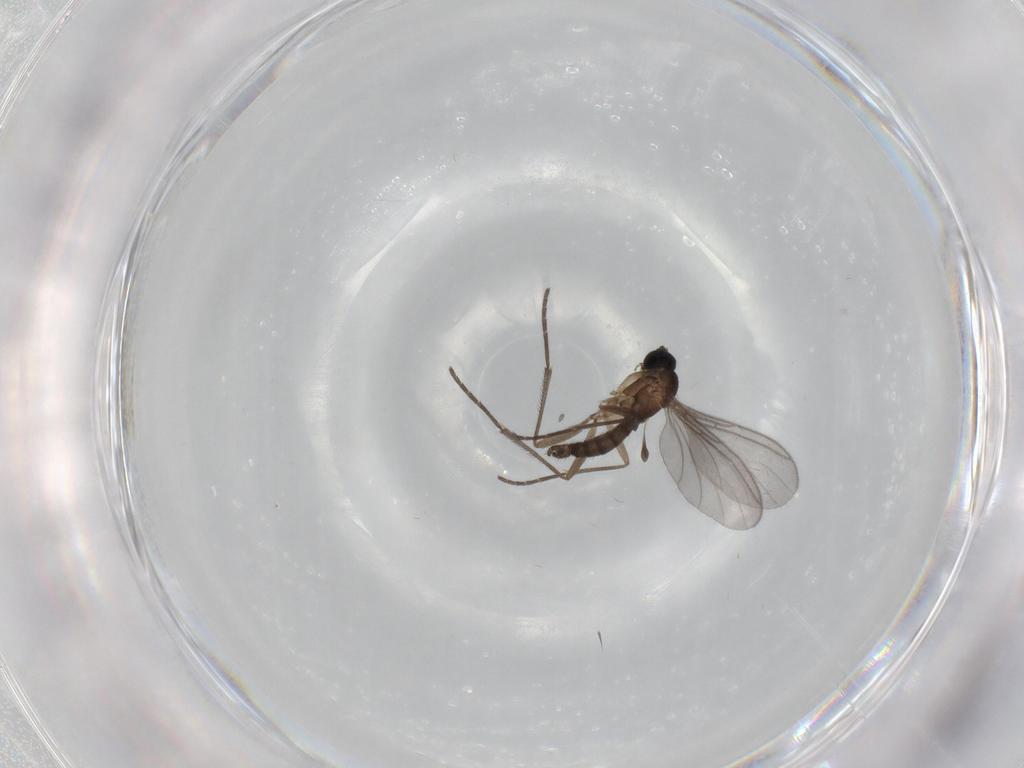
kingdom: Animalia
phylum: Arthropoda
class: Insecta
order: Diptera
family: Sciaridae
